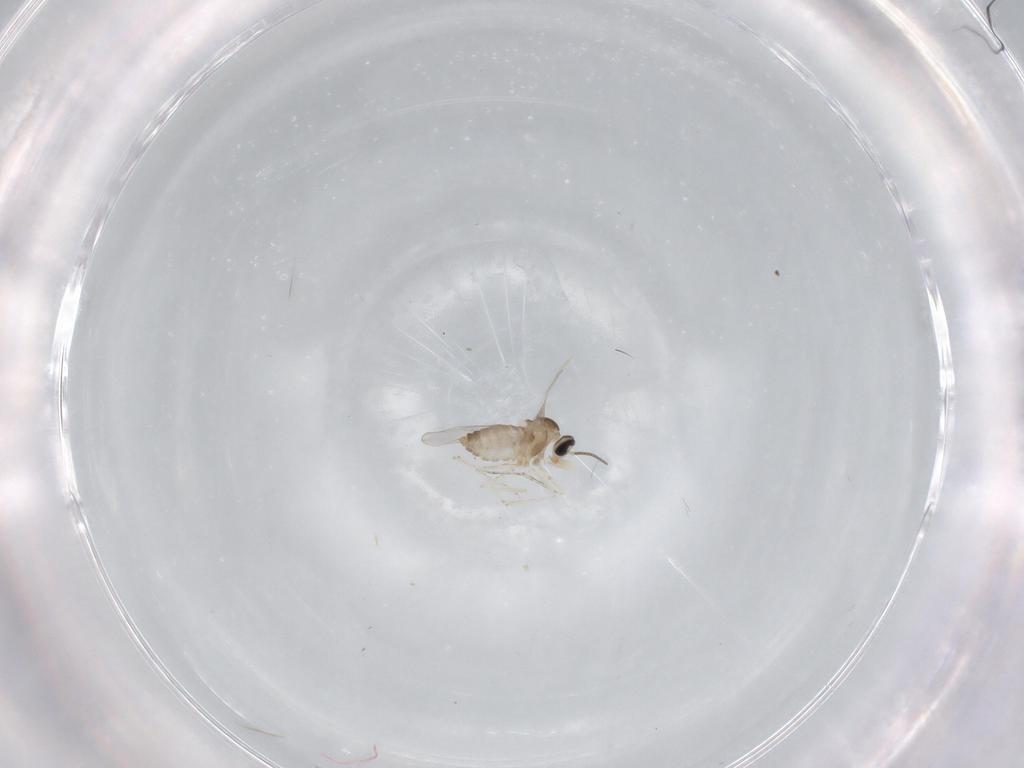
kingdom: Animalia
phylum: Arthropoda
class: Insecta
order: Diptera
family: Cecidomyiidae
